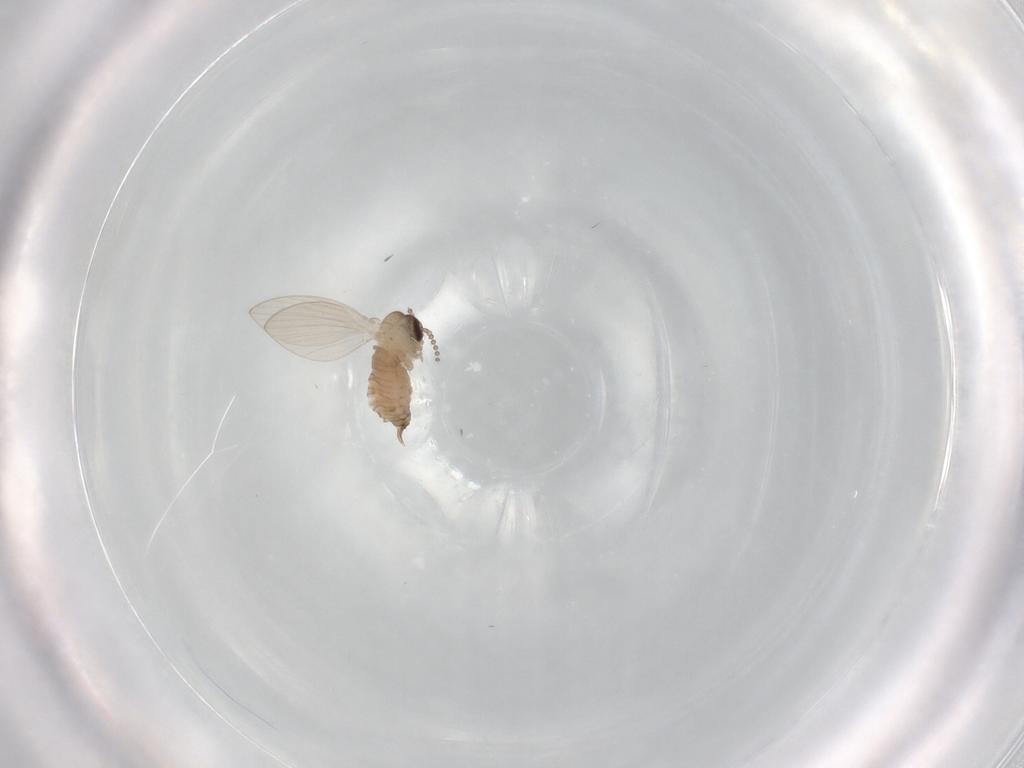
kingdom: Animalia
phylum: Arthropoda
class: Insecta
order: Diptera
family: Psychodidae
